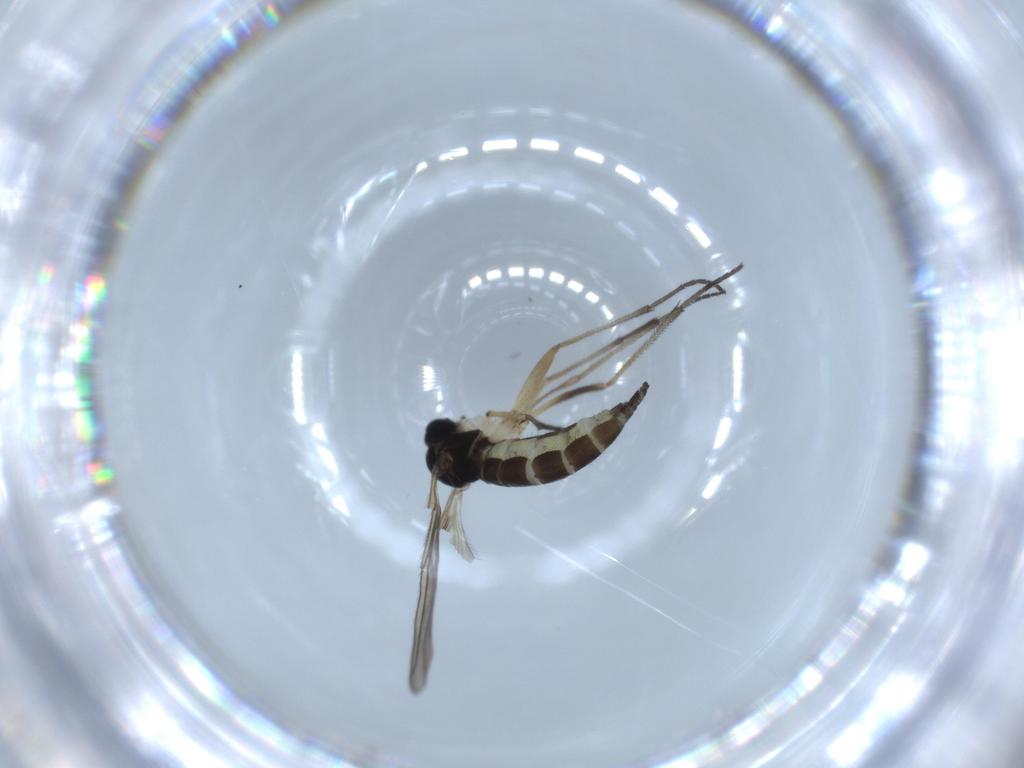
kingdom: Animalia
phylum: Arthropoda
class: Insecta
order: Diptera
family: Sciaridae
